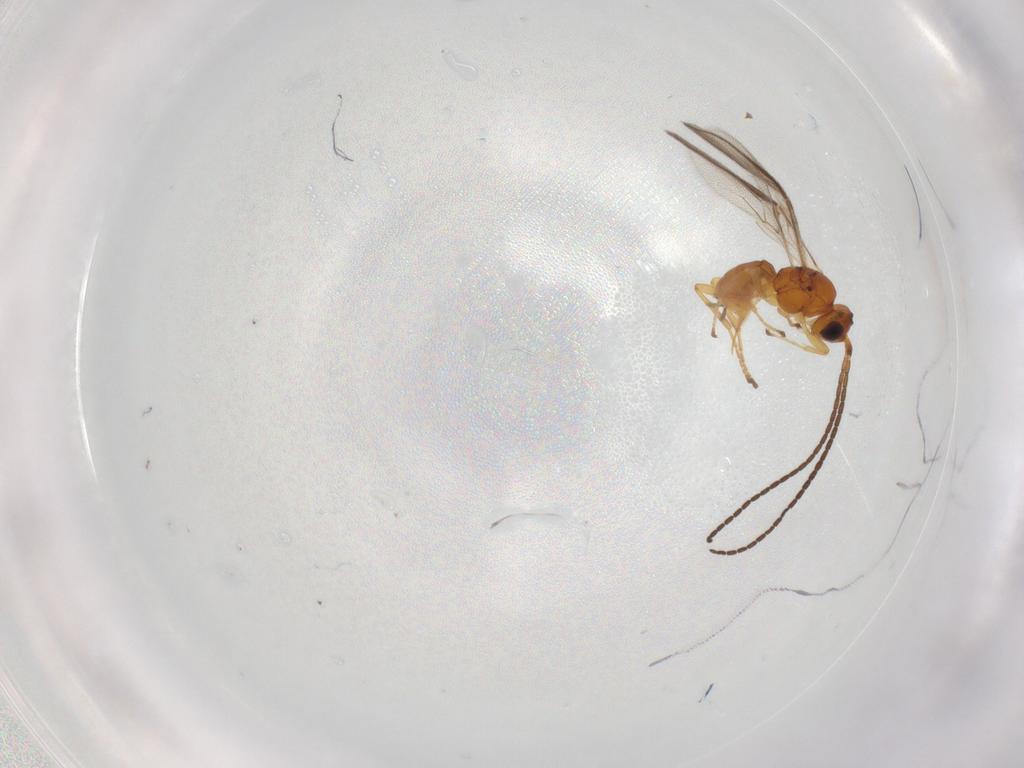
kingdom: Animalia
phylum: Arthropoda
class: Insecta
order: Hymenoptera
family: Braconidae
